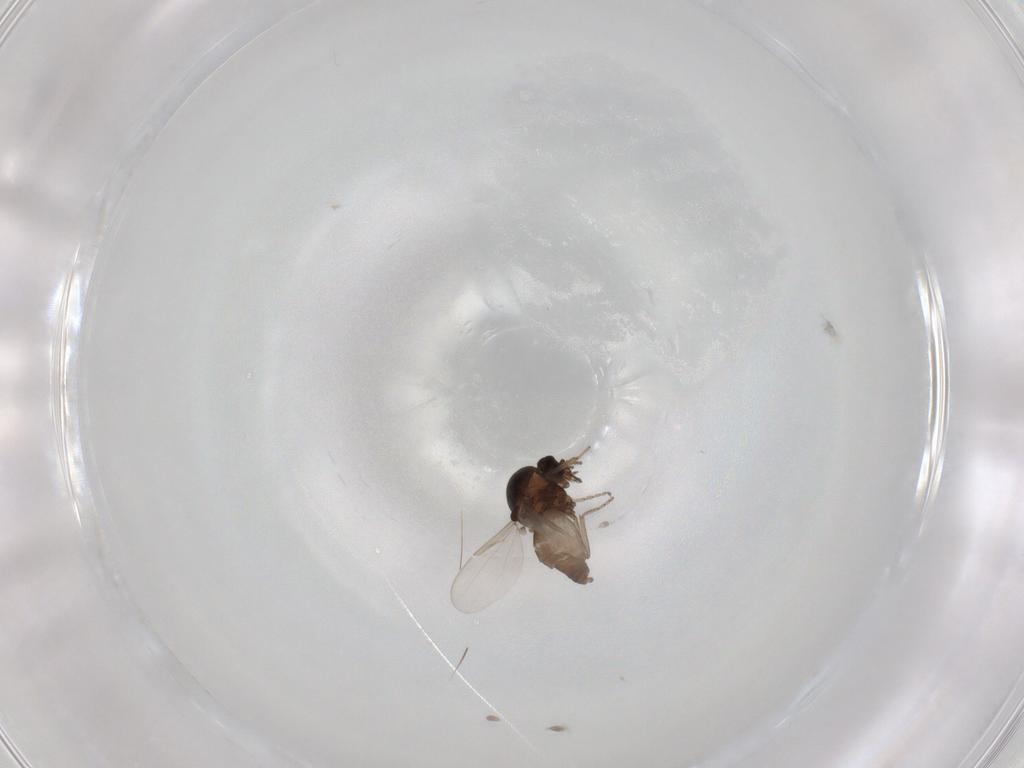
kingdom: Animalia
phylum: Arthropoda
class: Insecta
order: Diptera
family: Ceratopogonidae
